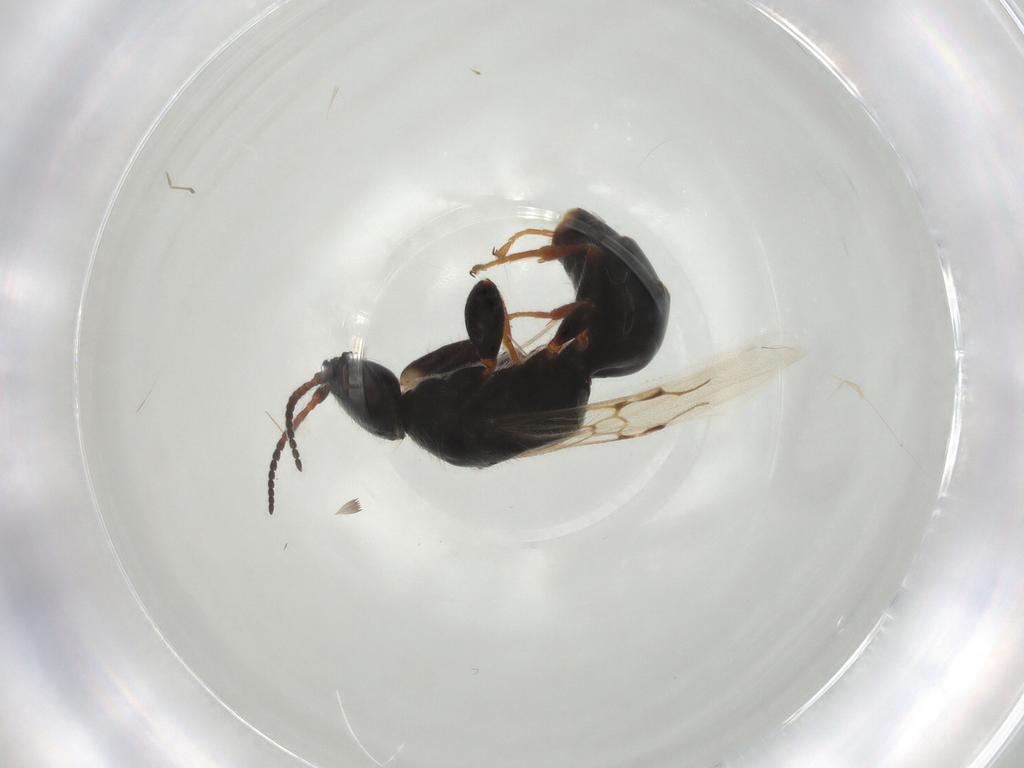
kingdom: Animalia
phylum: Arthropoda
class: Insecta
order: Hymenoptera
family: Bethylidae
